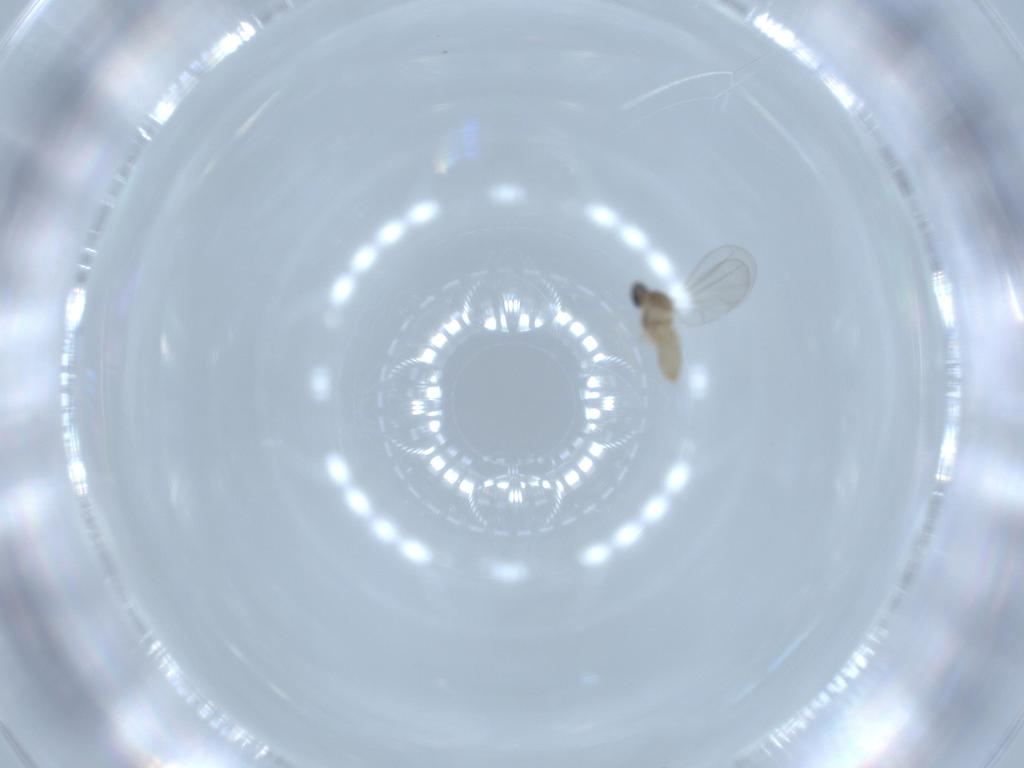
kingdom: Animalia
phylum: Arthropoda
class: Insecta
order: Diptera
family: Cecidomyiidae
